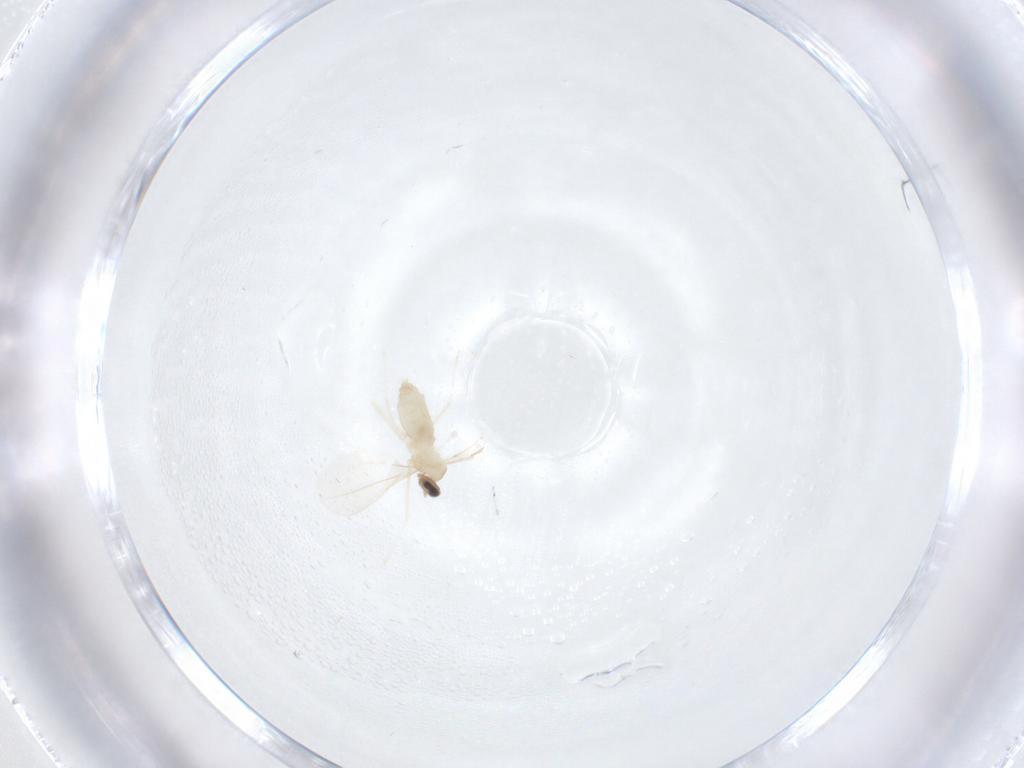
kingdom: Animalia
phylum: Arthropoda
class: Insecta
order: Diptera
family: Cecidomyiidae
